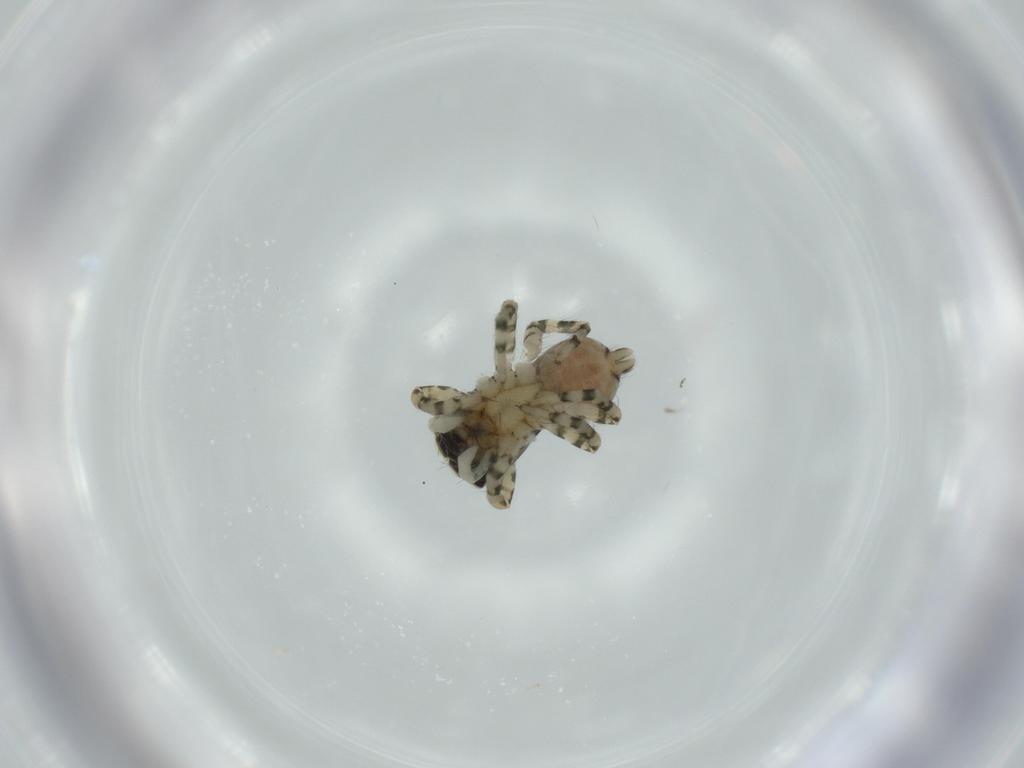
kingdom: Animalia
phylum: Arthropoda
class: Arachnida
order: Araneae
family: Salticidae
